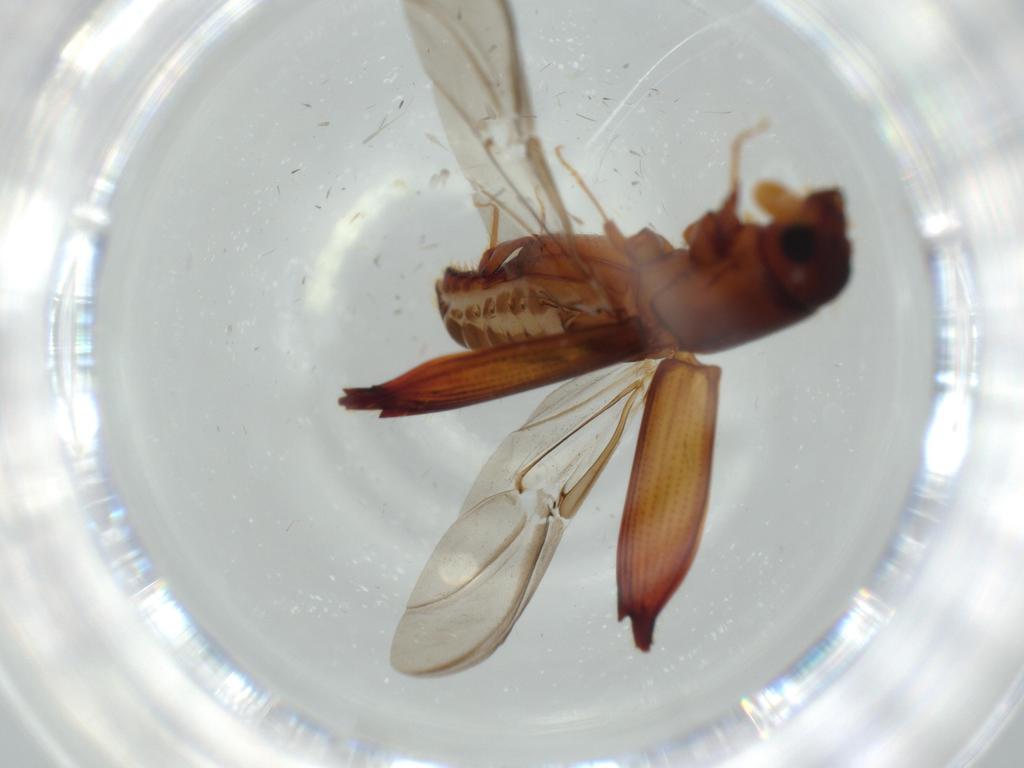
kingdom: Animalia
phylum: Arthropoda
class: Insecta
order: Coleoptera
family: Curculionidae
